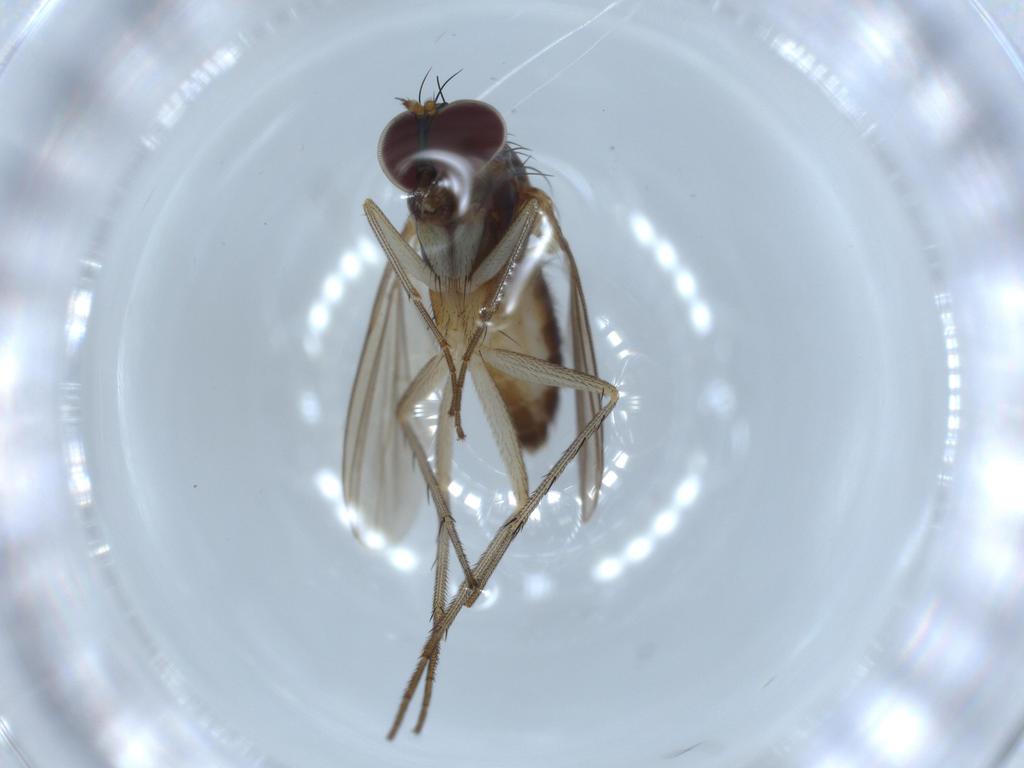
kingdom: Animalia
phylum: Arthropoda
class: Insecta
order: Diptera
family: Dolichopodidae
